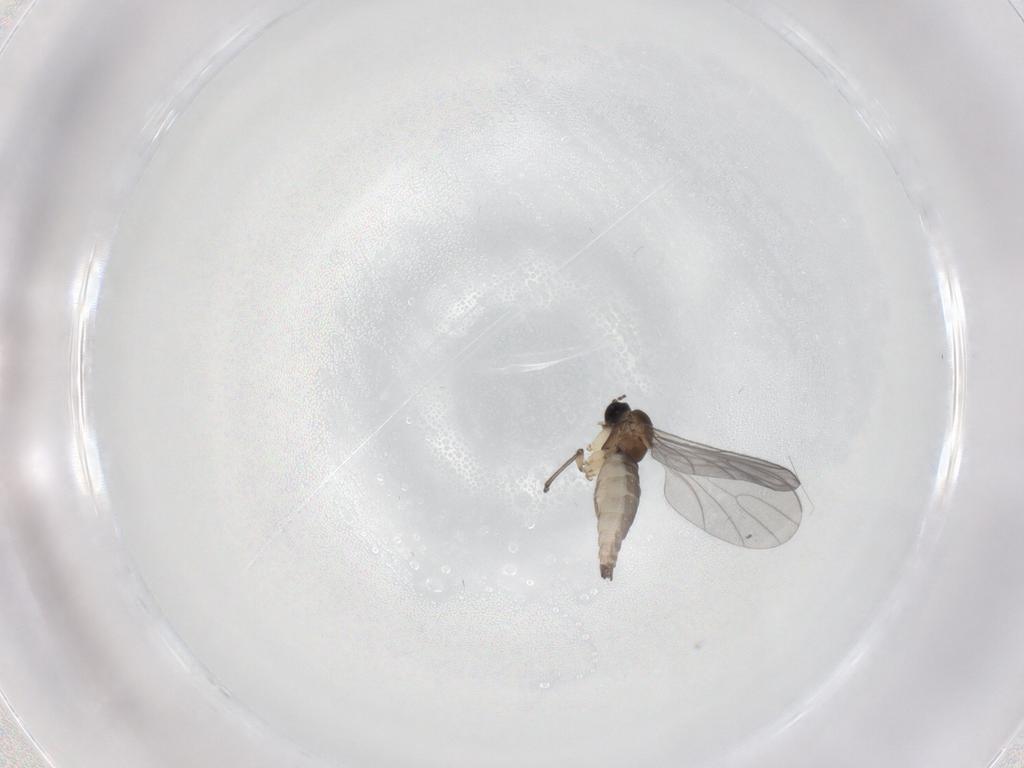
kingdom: Animalia
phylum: Arthropoda
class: Insecta
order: Diptera
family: Sciaridae
